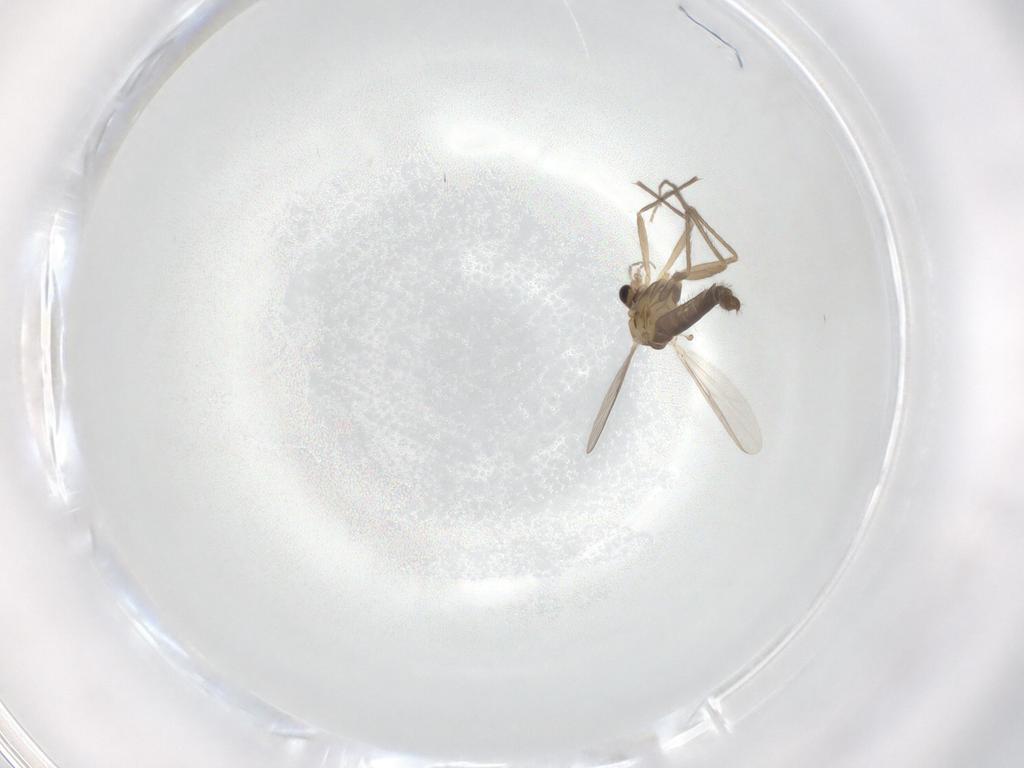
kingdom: Animalia
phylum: Arthropoda
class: Insecta
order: Diptera
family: Chironomidae
